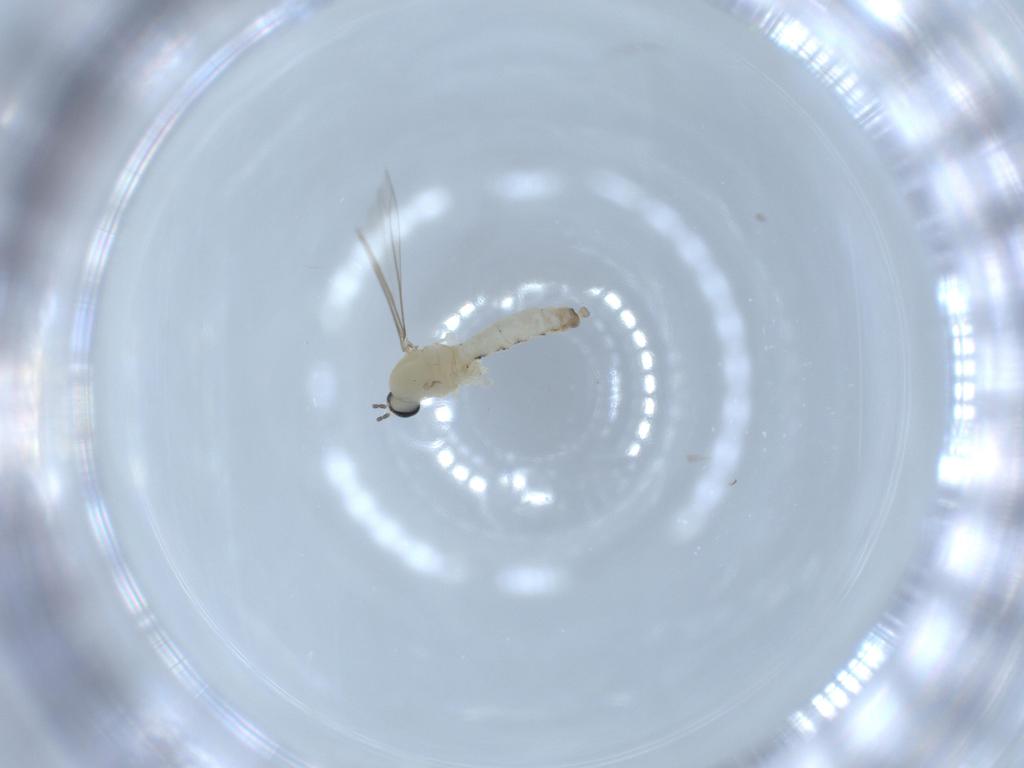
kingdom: Animalia
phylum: Arthropoda
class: Insecta
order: Diptera
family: Cecidomyiidae
